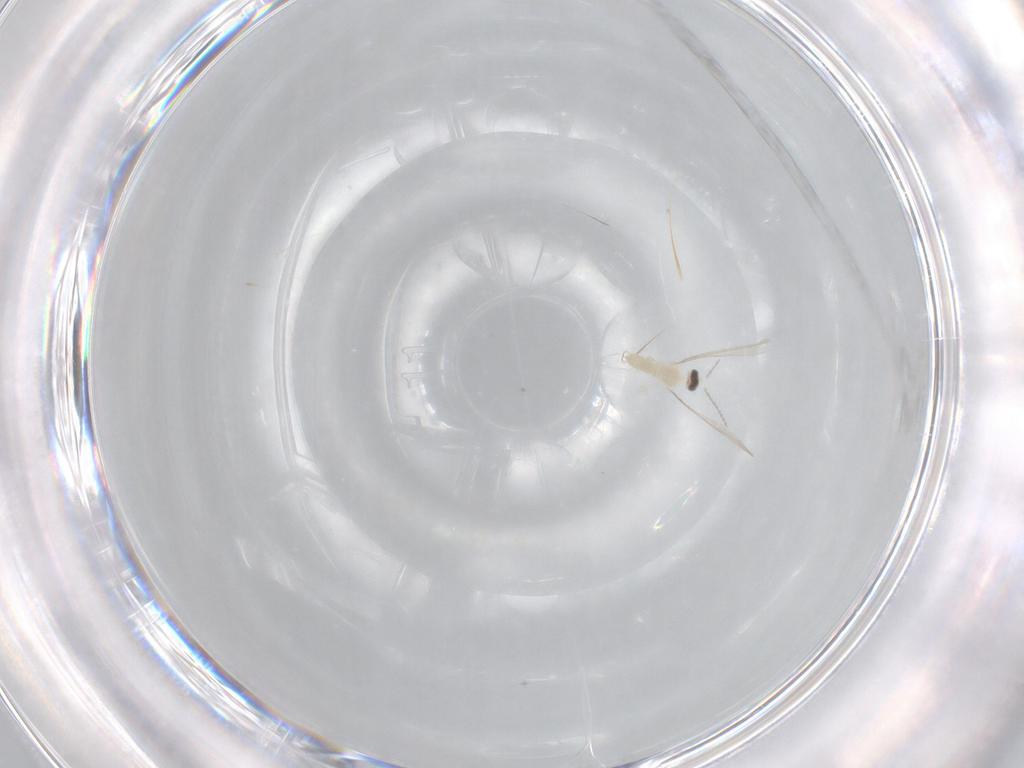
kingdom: Animalia
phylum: Arthropoda
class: Insecta
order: Diptera
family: Cecidomyiidae
